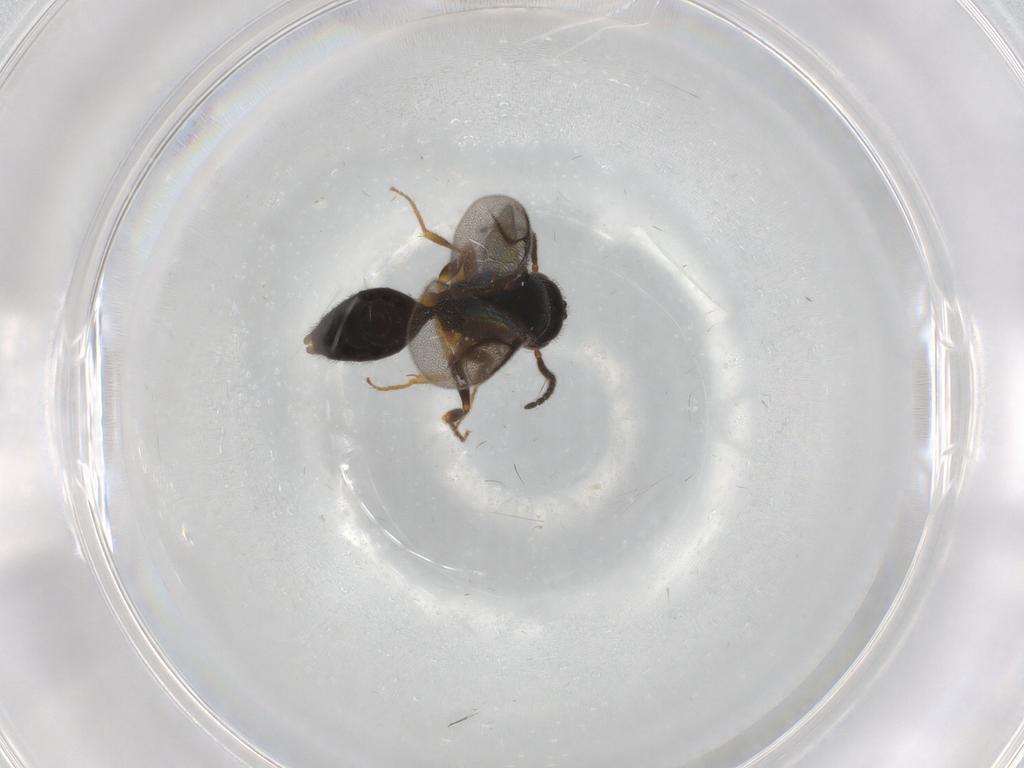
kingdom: Animalia
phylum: Arthropoda
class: Insecta
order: Hymenoptera
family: Bethylidae
